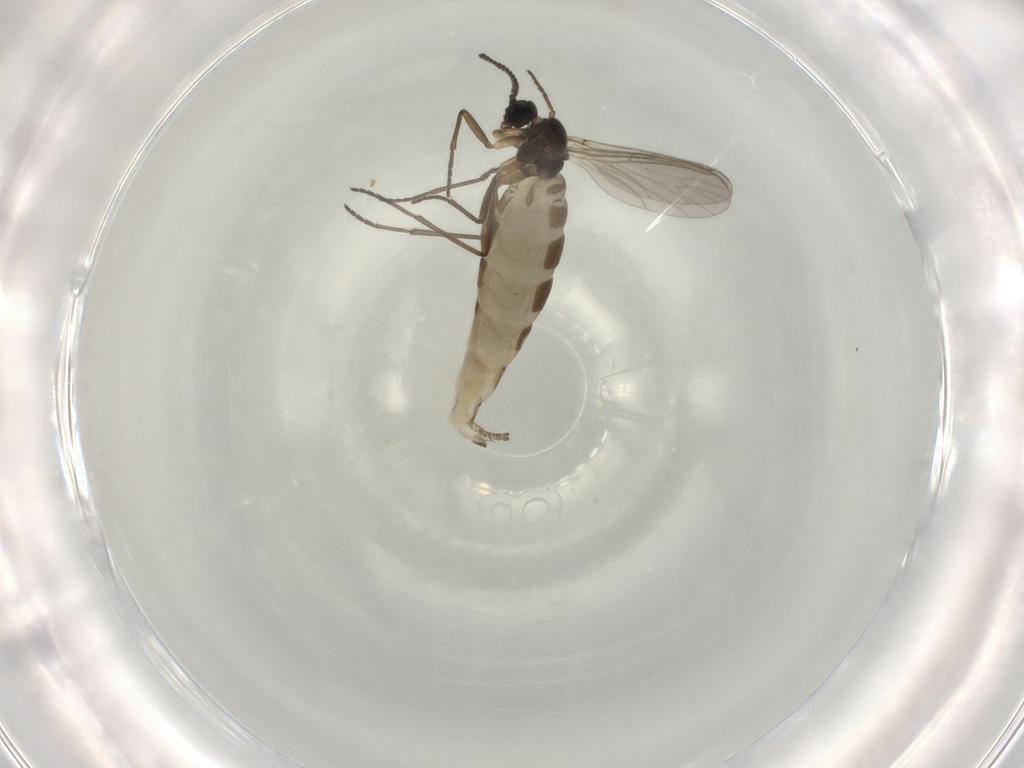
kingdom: Animalia
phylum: Arthropoda
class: Insecta
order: Diptera
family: Sciaridae
